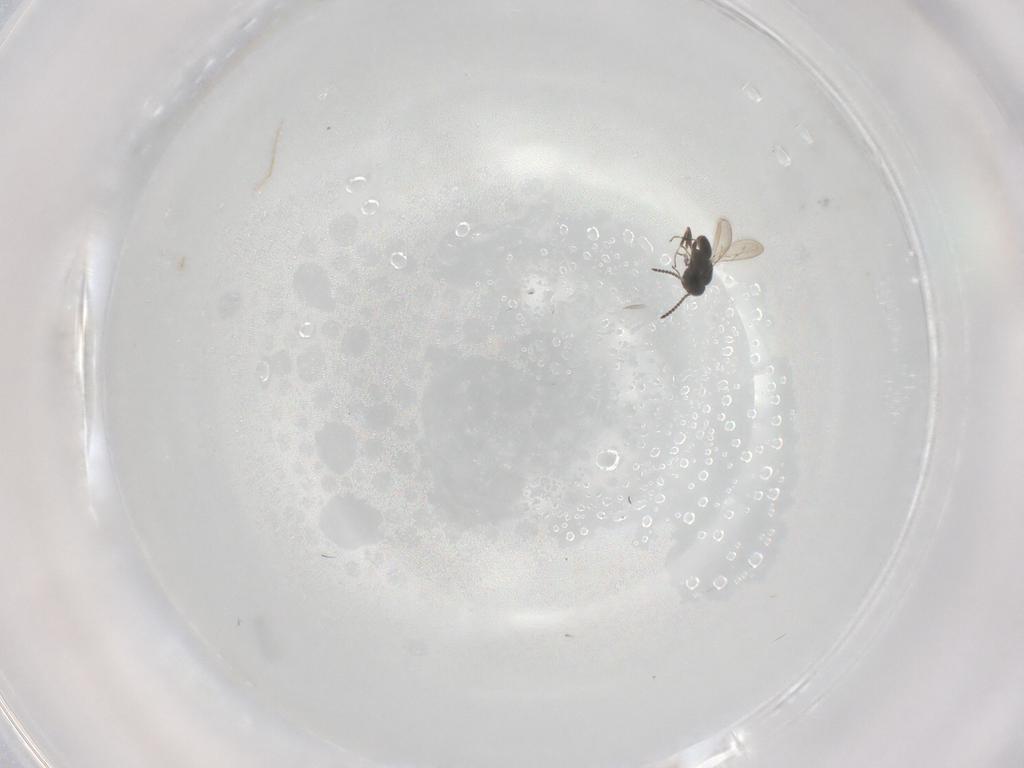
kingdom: Animalia
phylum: Arthropoda
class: Insecta
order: Hymenoptera
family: Scelionidae
